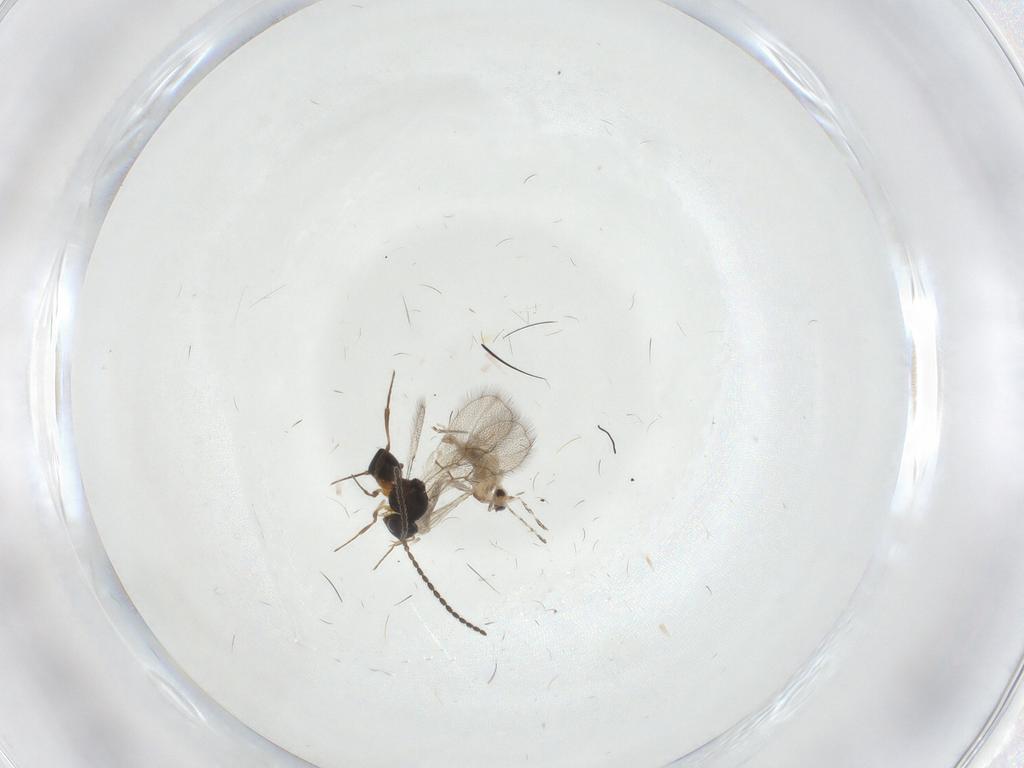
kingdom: Animalia
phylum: Arthropoda
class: Insecta
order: Hymenoptera
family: Figitidae
